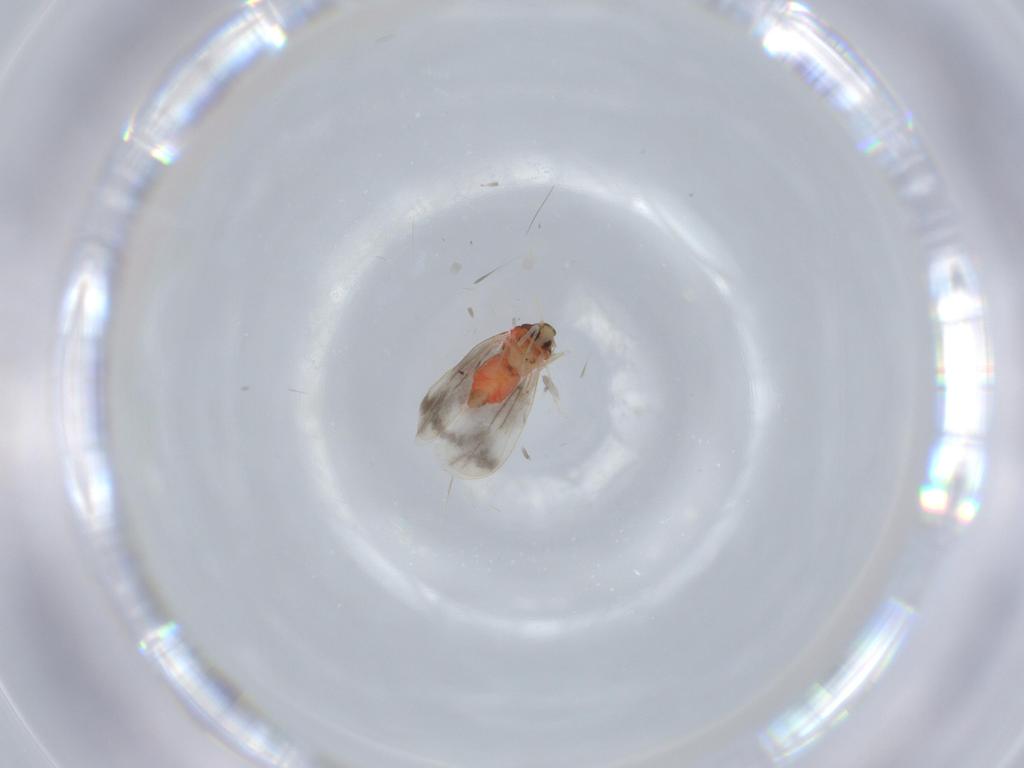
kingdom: Animalia
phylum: Arthropoda
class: Insecta
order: Hemiptera
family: Aleyrodidae
